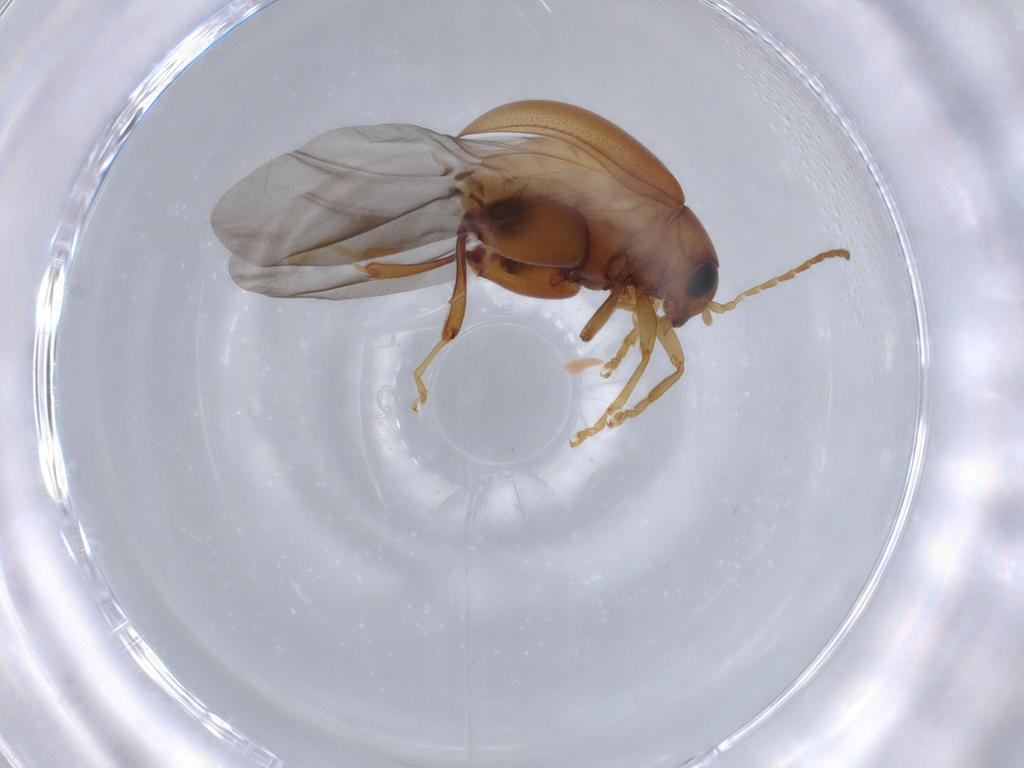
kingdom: Animalia
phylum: Arthropoda
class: Insecta
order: Coleoptera
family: Chrysomelidae
